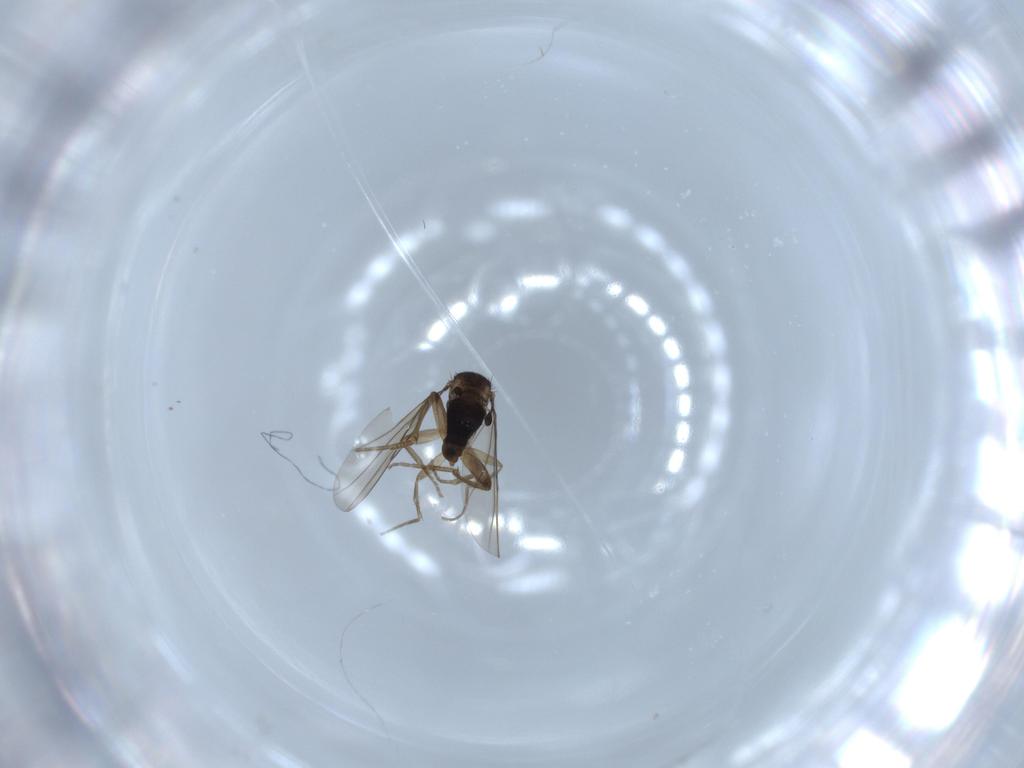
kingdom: Animalia
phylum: Arthropoda
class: Insecta
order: Diptera
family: Phoridae
